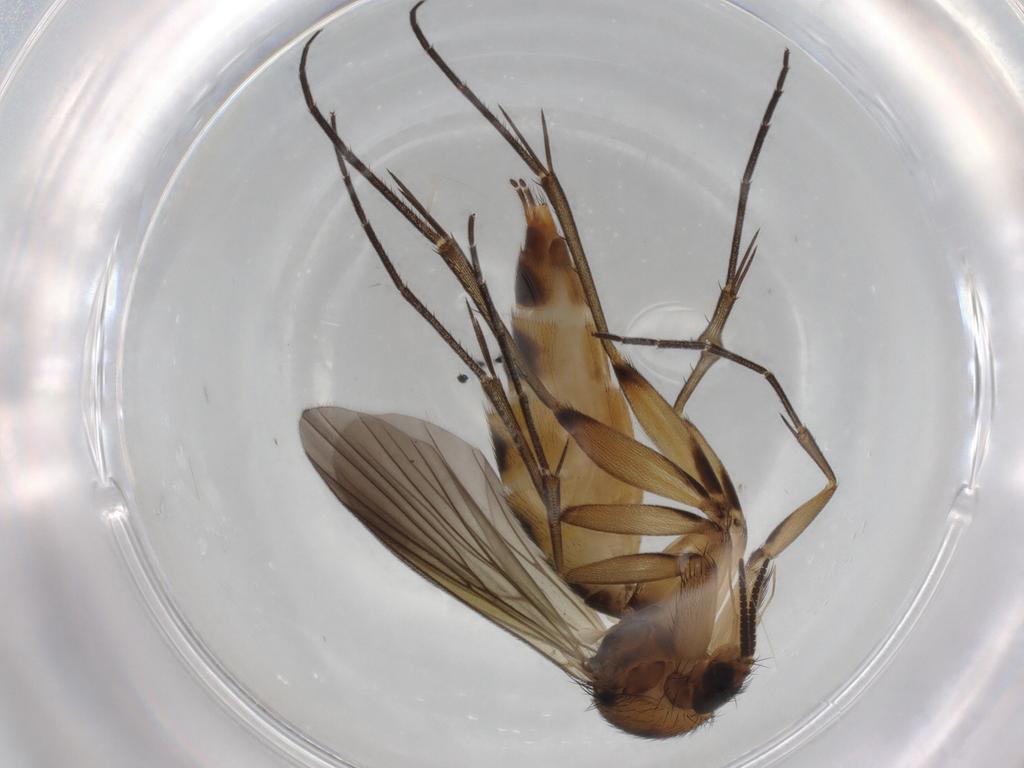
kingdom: Animalia
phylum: Arthropoda
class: Insecta
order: Diptera
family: Mycetophilidae
